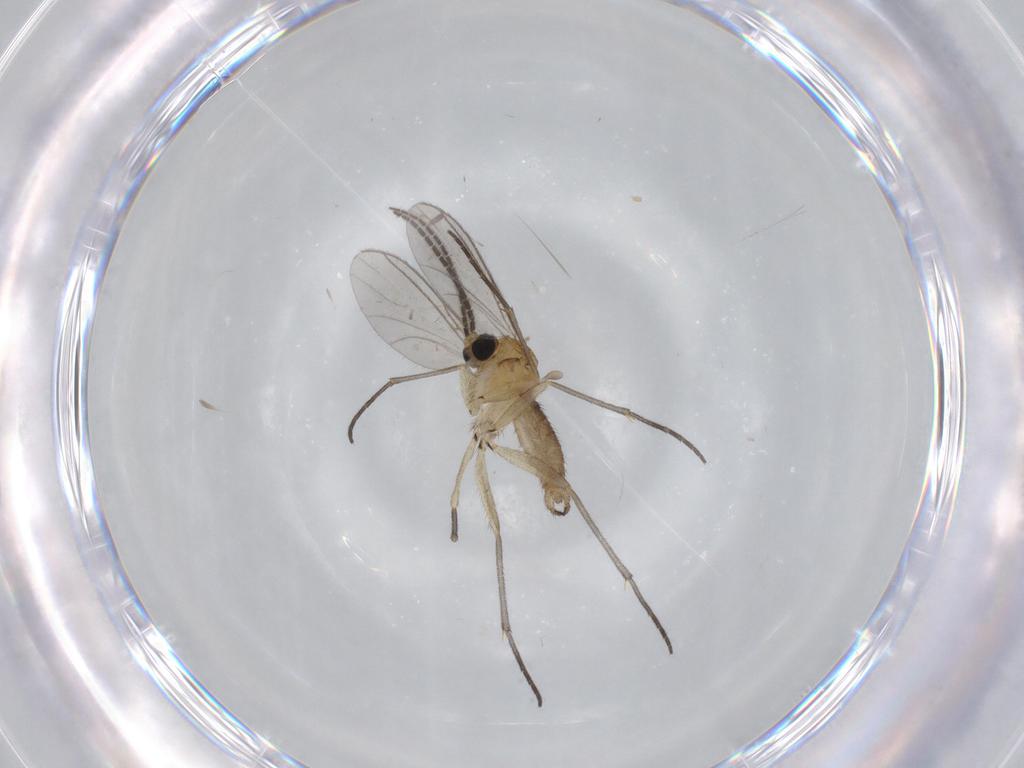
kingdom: Animalia
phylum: Arthropoda
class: Insecta
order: Diptera
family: Sciaridae
